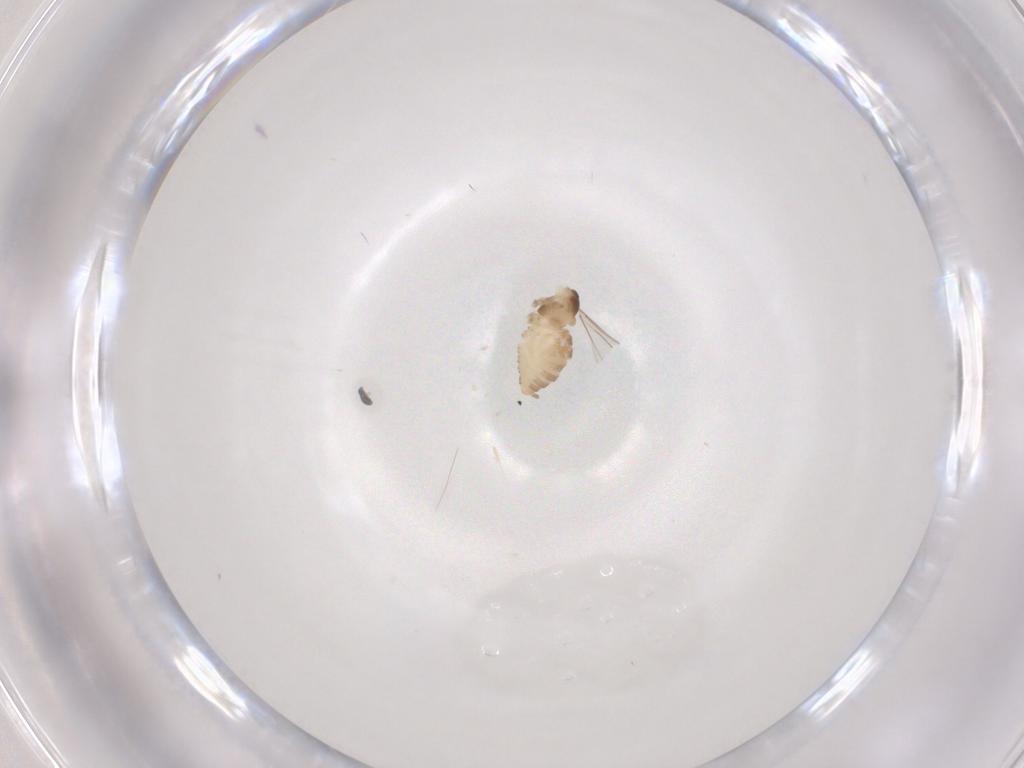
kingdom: Animalia
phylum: Arthropoda
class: Insecta
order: Diptera
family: Cecidomyiidae
